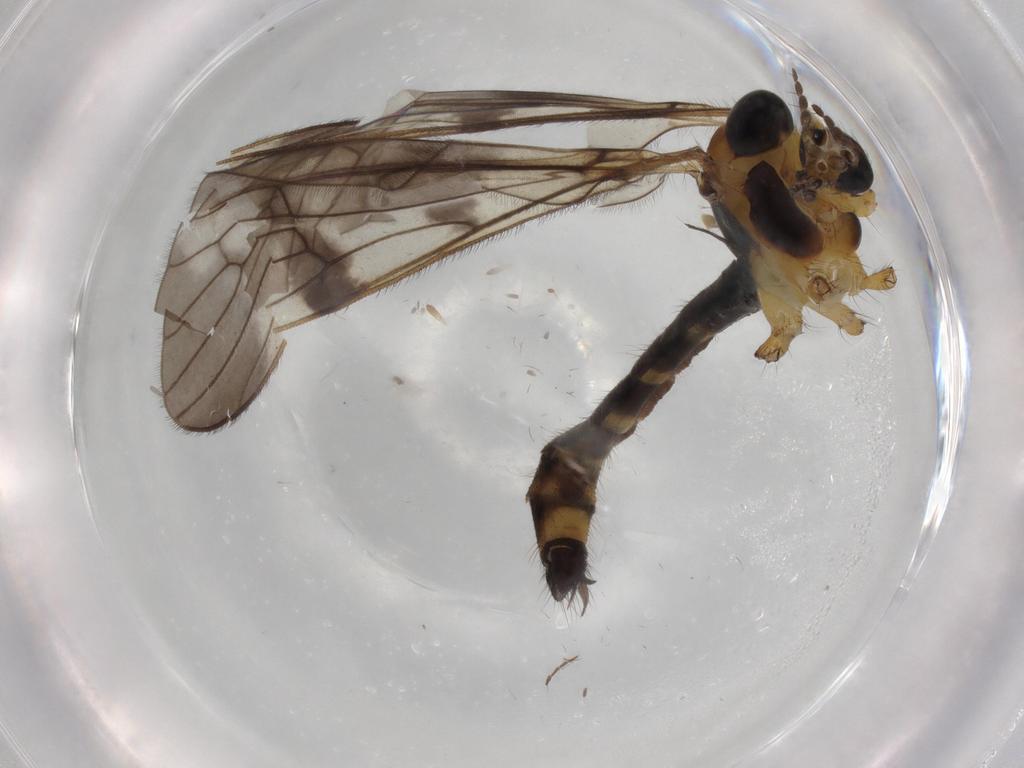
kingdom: Animalia
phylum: Arthropoda
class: Insecta
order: Diptera
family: Limoniidae
